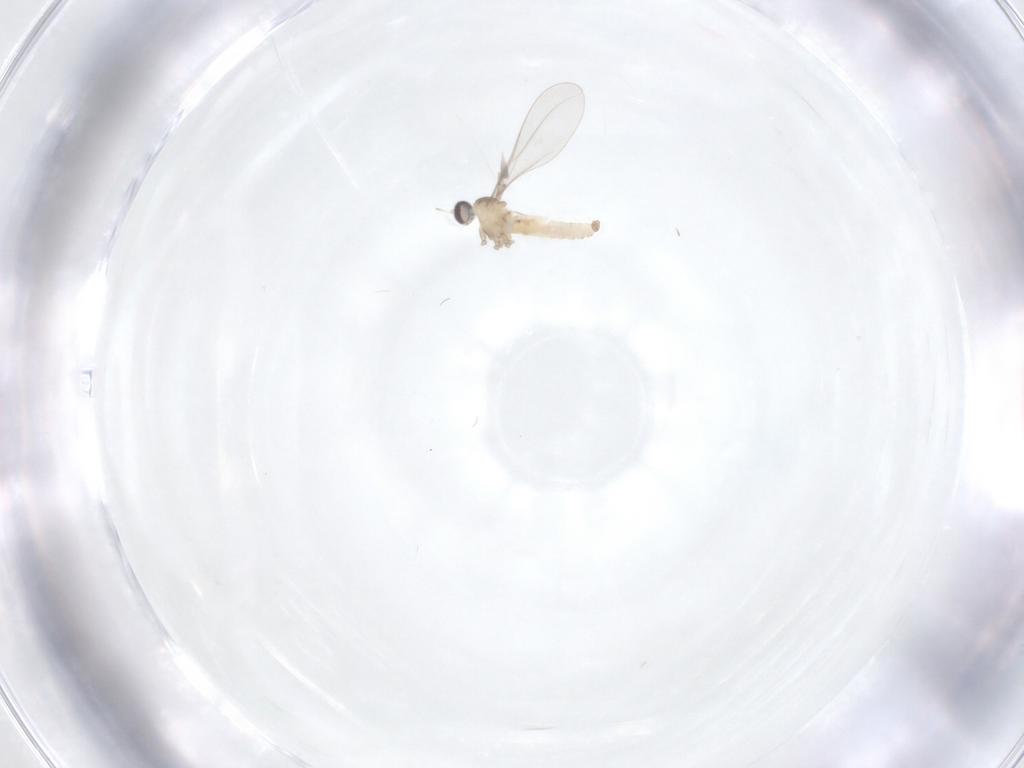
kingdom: Animalia
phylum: Arthropoda
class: Insecta
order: Diptera
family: Cecidomyiidae
